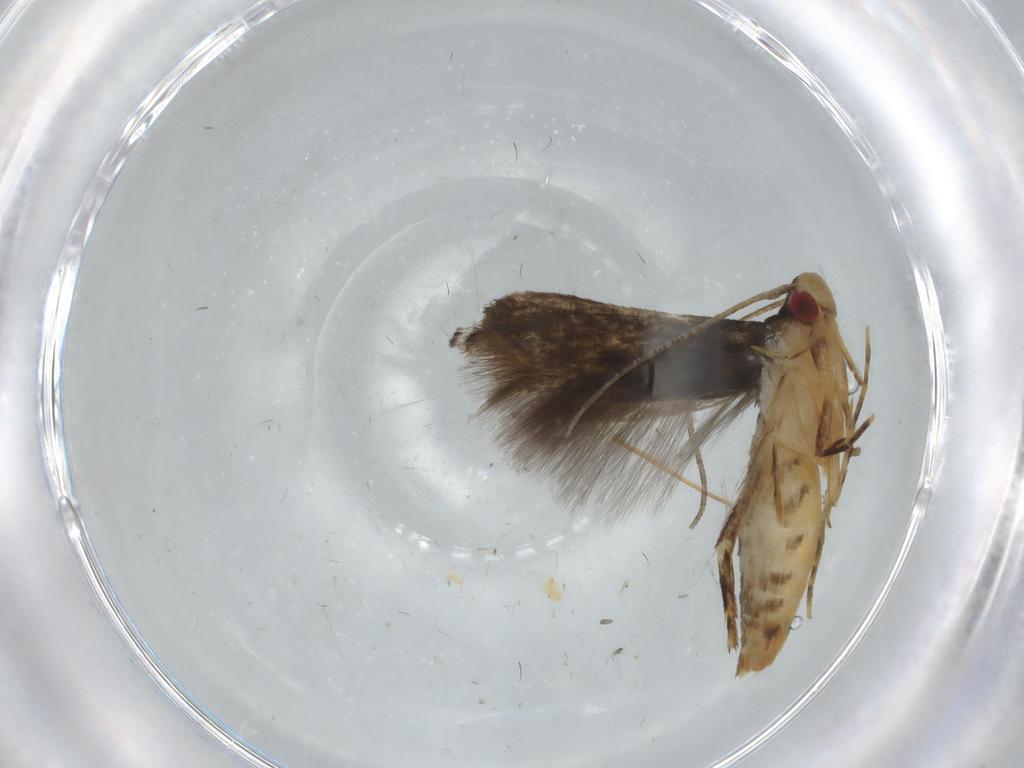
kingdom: Animalia
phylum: Arthropoda
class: Insecta
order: Lepidoptera
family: Momphidae
